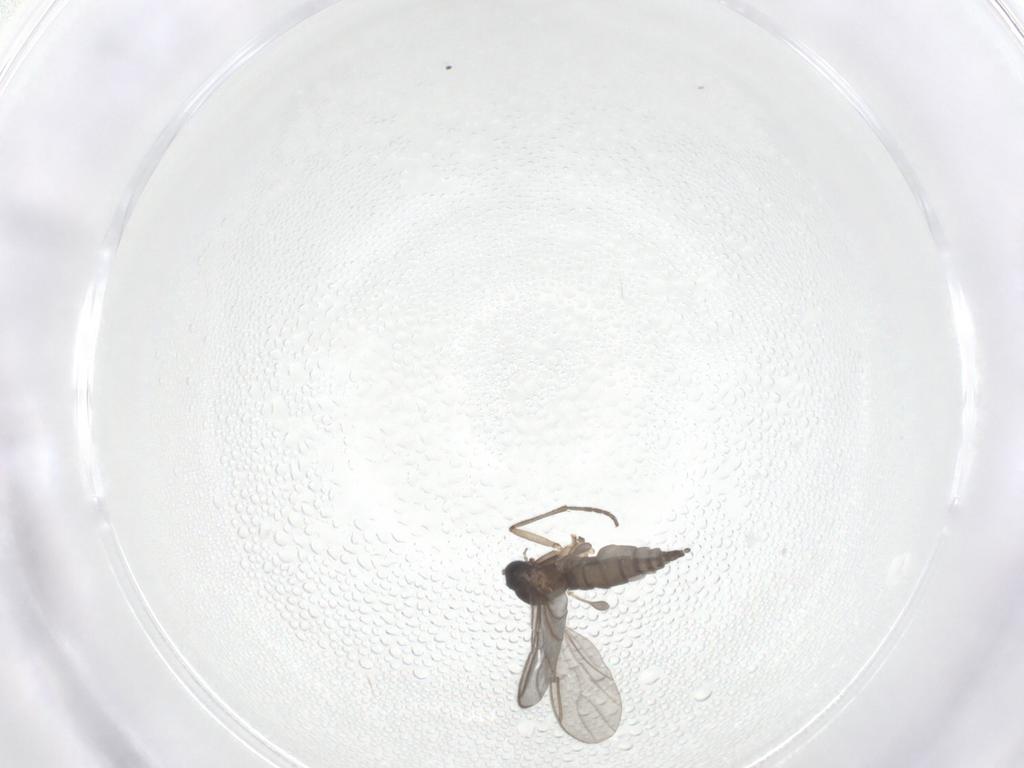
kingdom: Animalia
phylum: Arthropoda
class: Insecta
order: Diptera
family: Sciaridae
